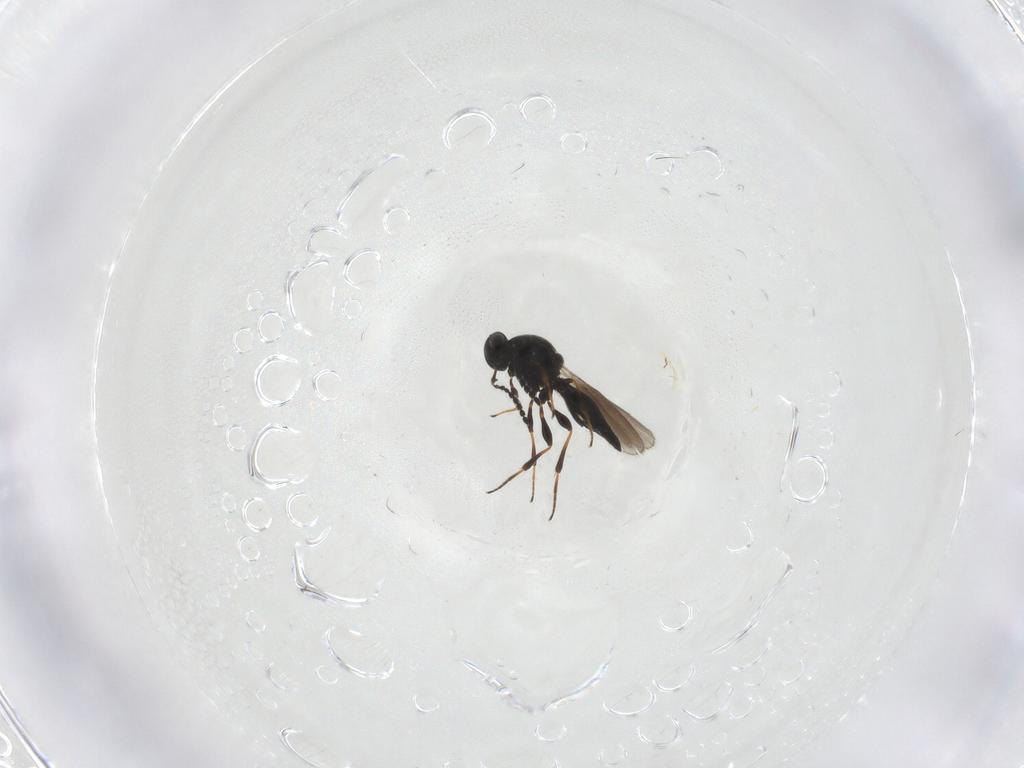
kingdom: Animalia
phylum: Arthropoda
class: Insecta
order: Hymenoptera
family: Platygastridae
